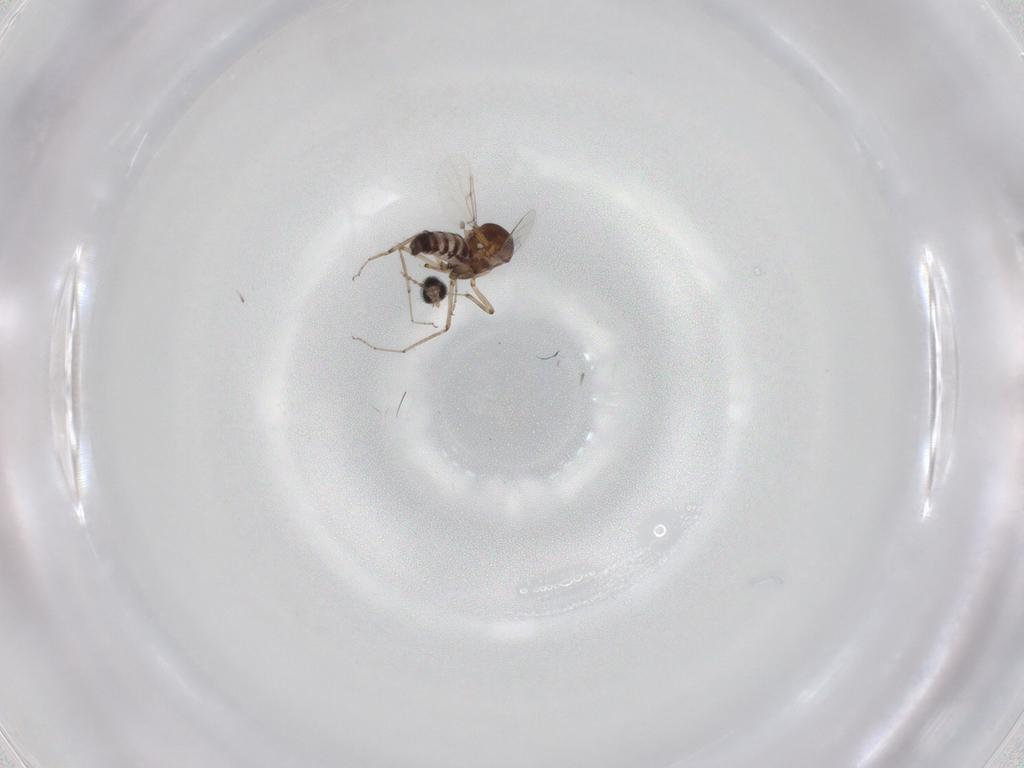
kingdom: Animalia
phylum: Arthropoda
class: Insecta
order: Diptera
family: Ceratopogonidae
